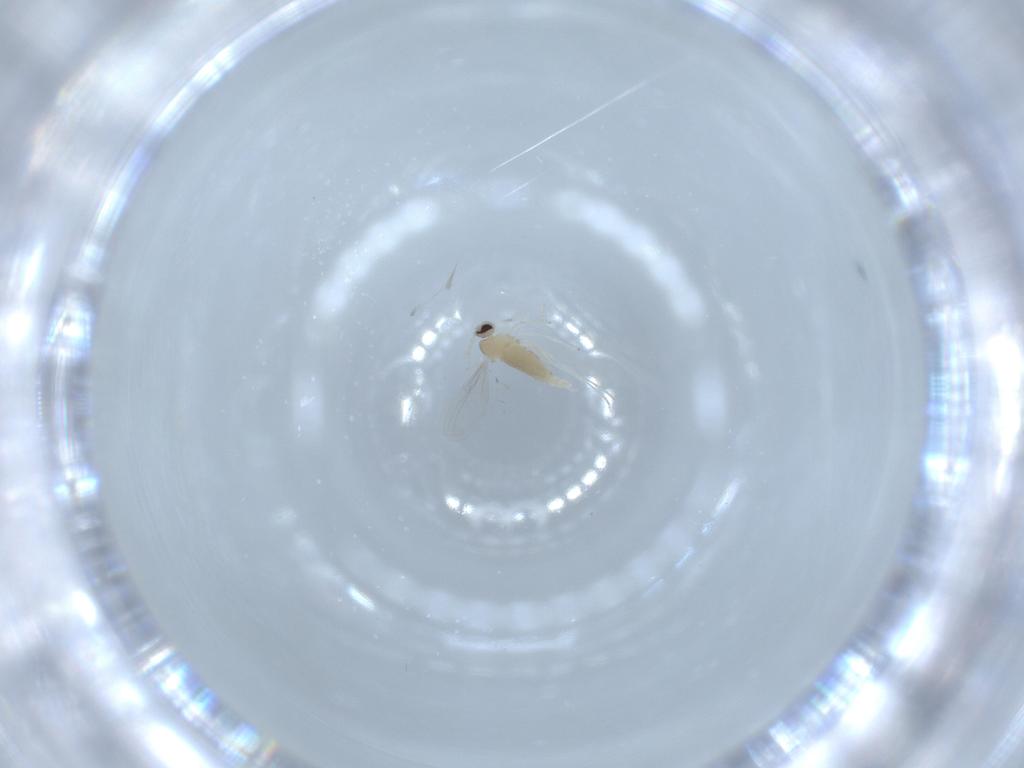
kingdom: Animalia
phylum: Arthropoda
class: Insecta
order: Diptera
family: Cecidomyiidae
